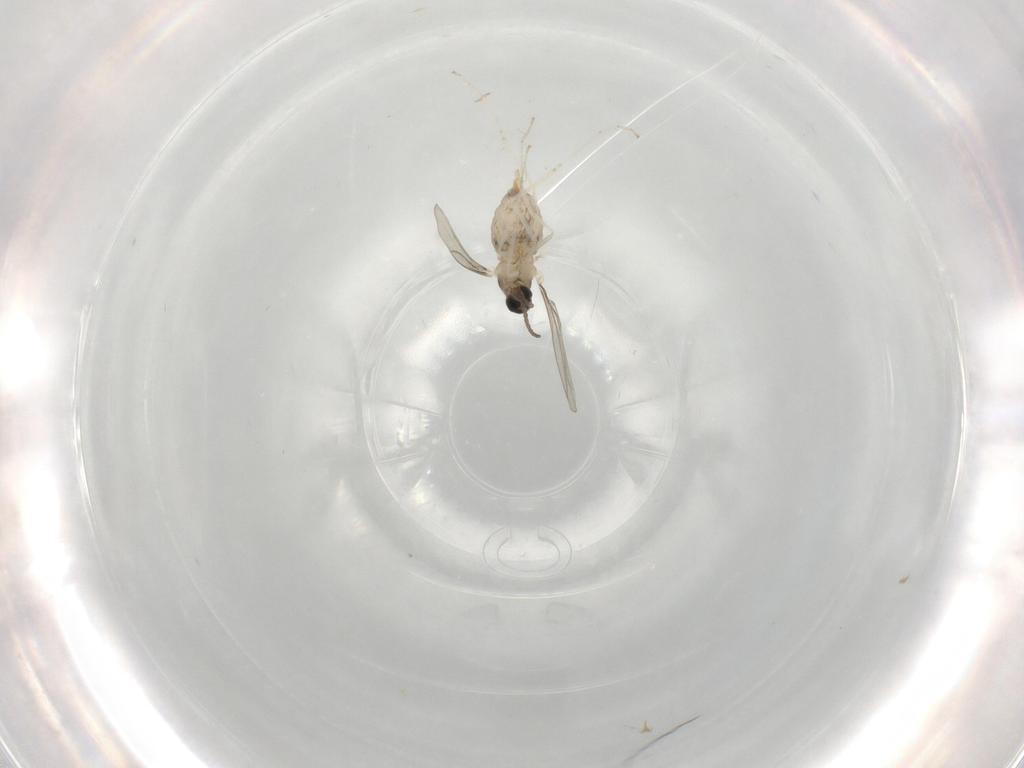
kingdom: Animalia
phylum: Arthropoda
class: Insecta
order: Diptera
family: Cecidomyiidae
